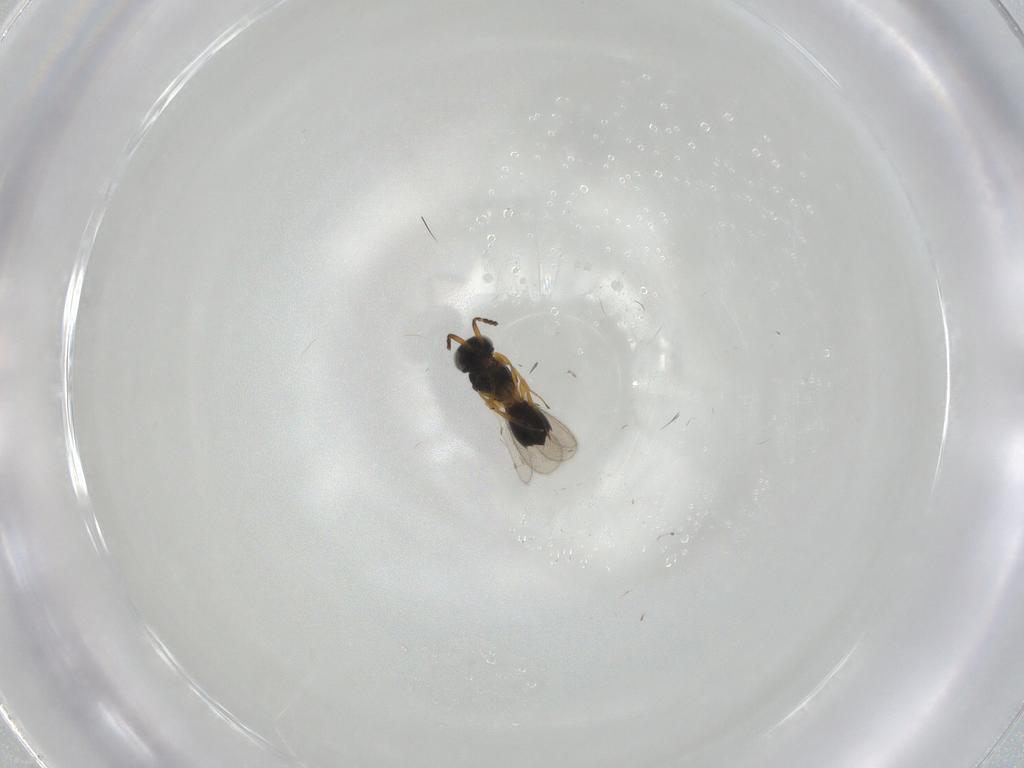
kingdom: Animalia
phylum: Arthropoda
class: Insecta
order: Hymenoptera
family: Scelionidae
